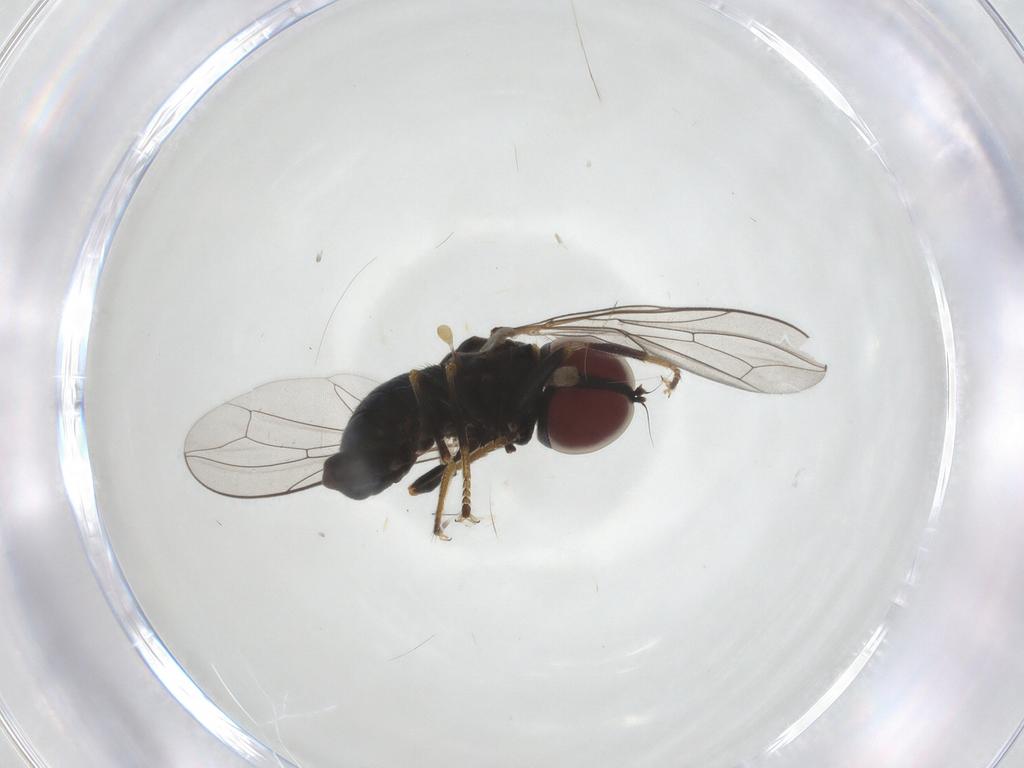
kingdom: Animalia
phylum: Arthropoda
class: Insecta
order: Diptera
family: Pipunculidae
